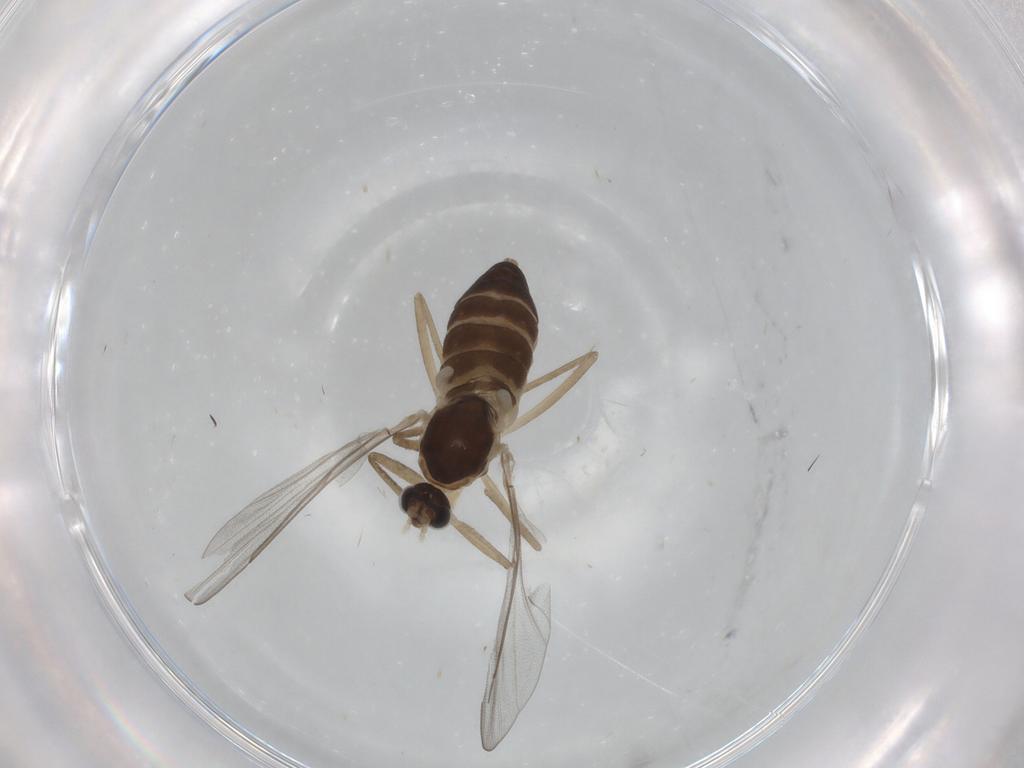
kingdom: Animalia
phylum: Arthropoda
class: Insecta
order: Diptera
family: Cecidomyiidae
